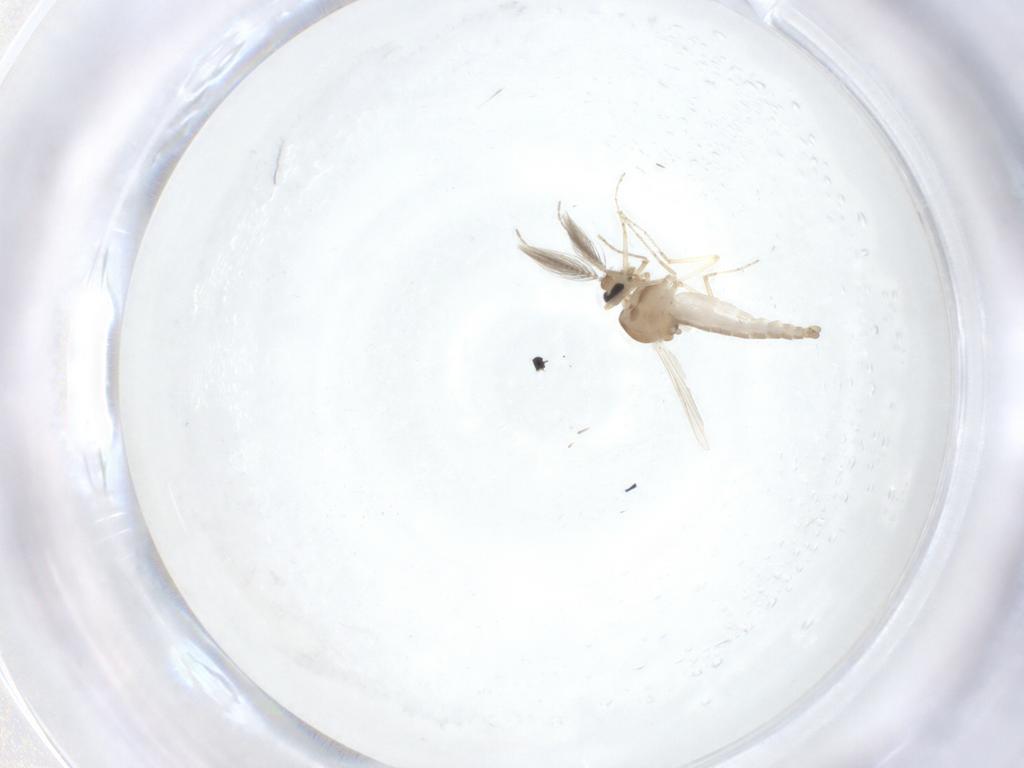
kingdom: Animalia
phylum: Arthropoda
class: Insecta
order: Diptera
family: Ceratopogonidae
